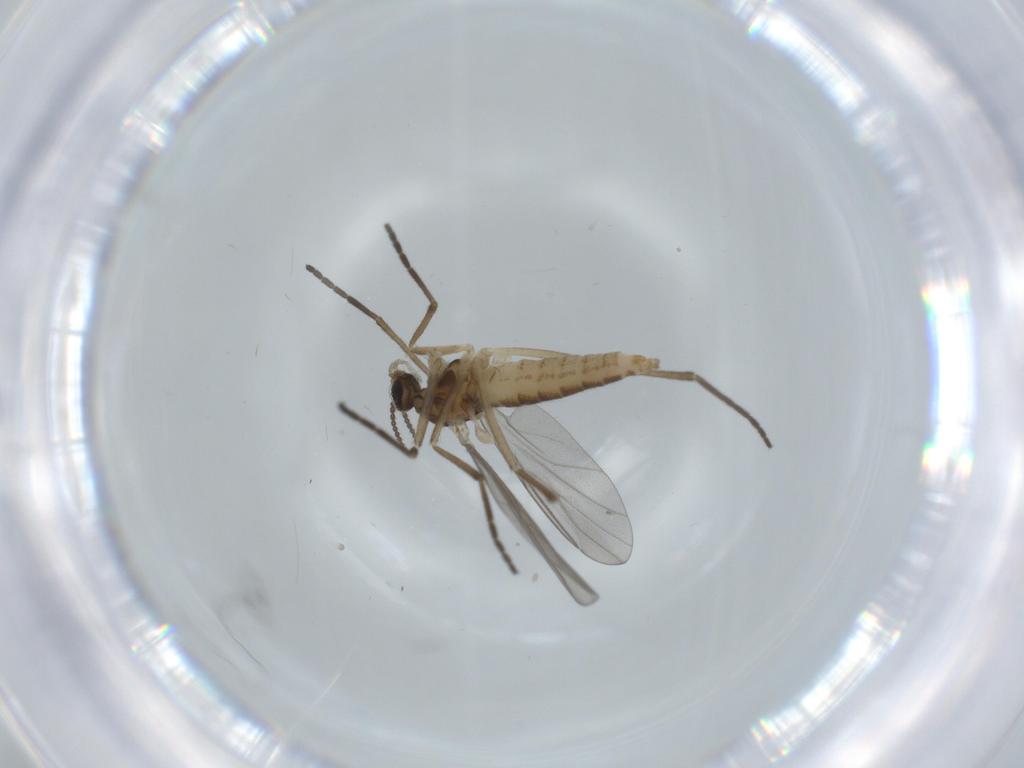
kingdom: Animalia
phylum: Arthropoda
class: Insecta
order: Diptera
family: Cecidomyiidae
